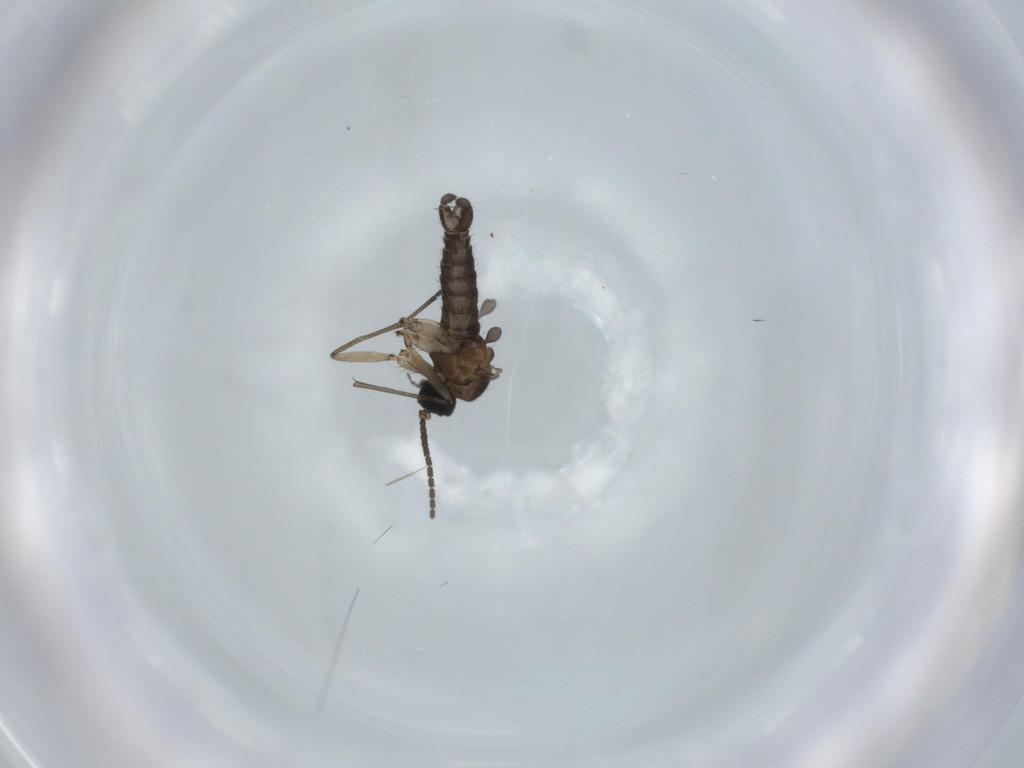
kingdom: Animalia
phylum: Arthropoda
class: Insecta
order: Diptera
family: Sciaridae
